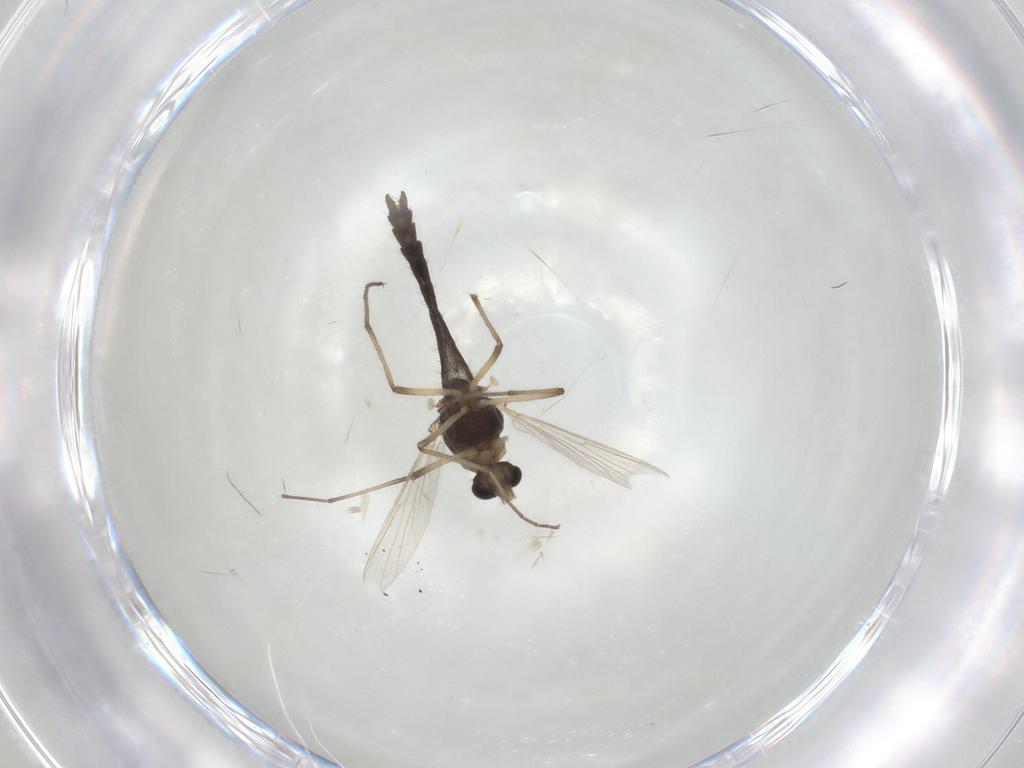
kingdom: Animalia
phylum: Arthropoda
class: Insecta
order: Diptera
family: Chironomidae
